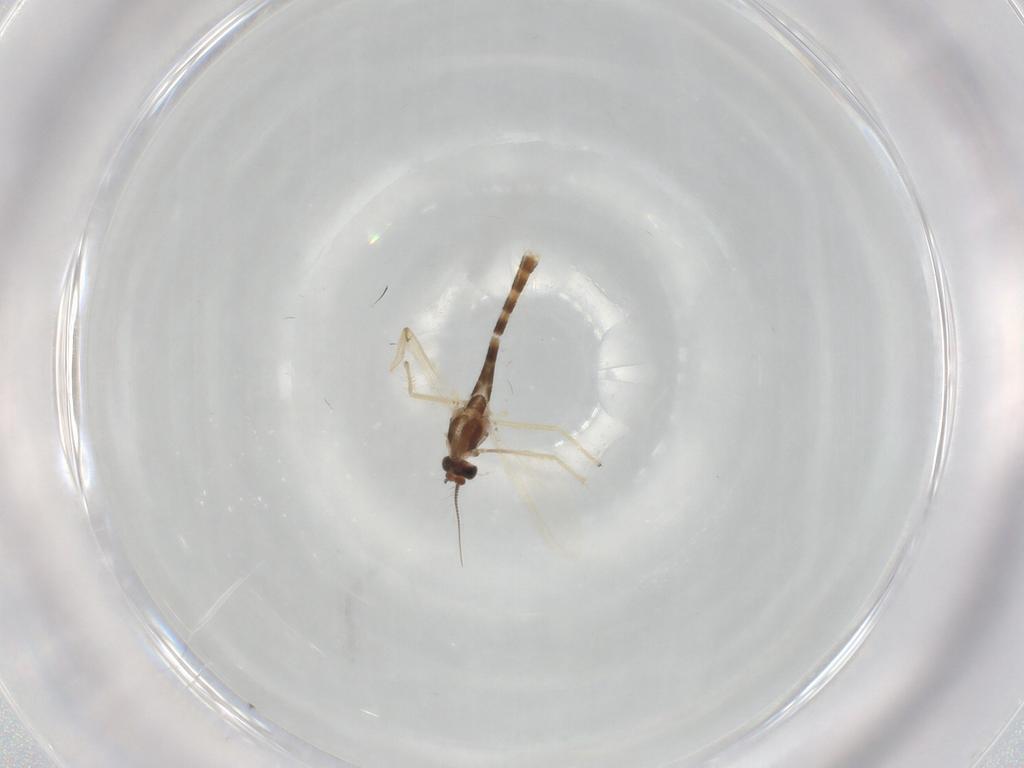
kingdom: Animalia
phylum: Arthropoda
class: Insecta
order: Diptera
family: Chironomidae
